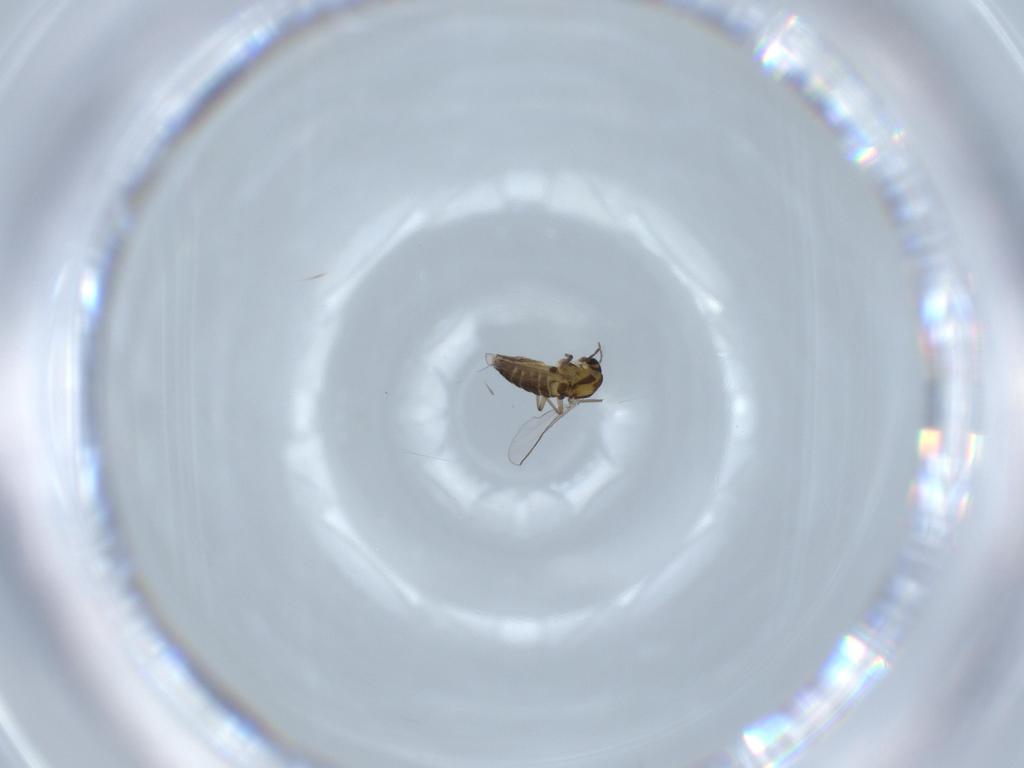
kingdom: Animalia
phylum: Arthropoda
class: Insecta
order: Diptera
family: Chironomidae
